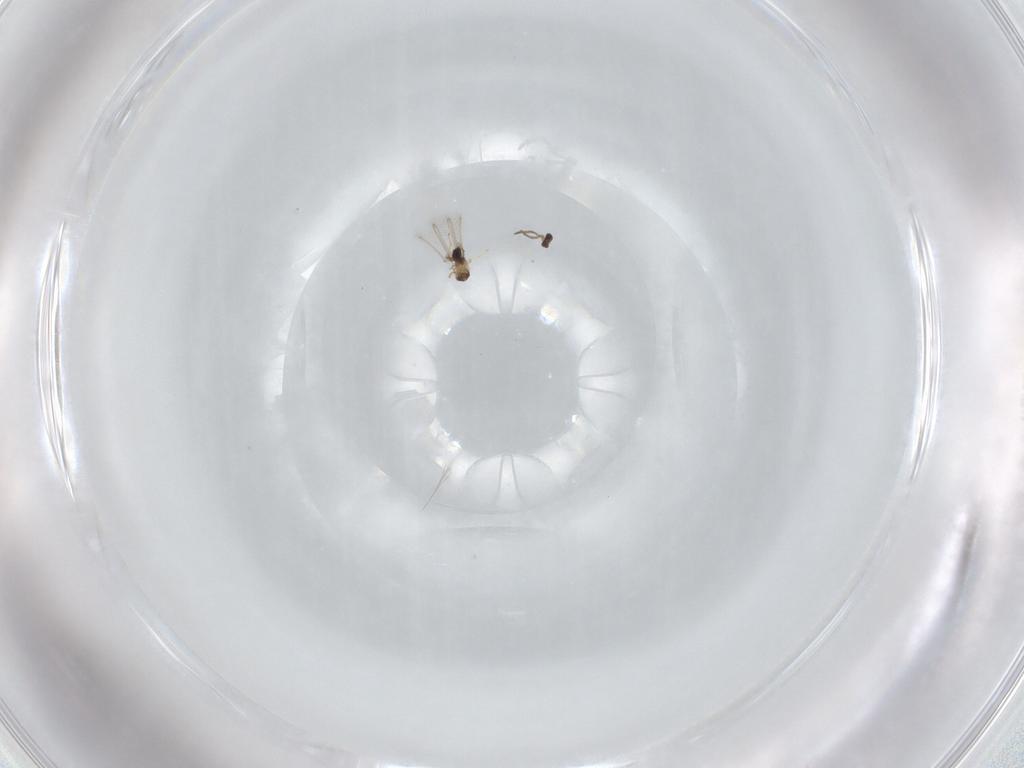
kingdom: Animalia
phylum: Arthropoda
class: Insecta
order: Hymenoptera
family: Mymaridae
